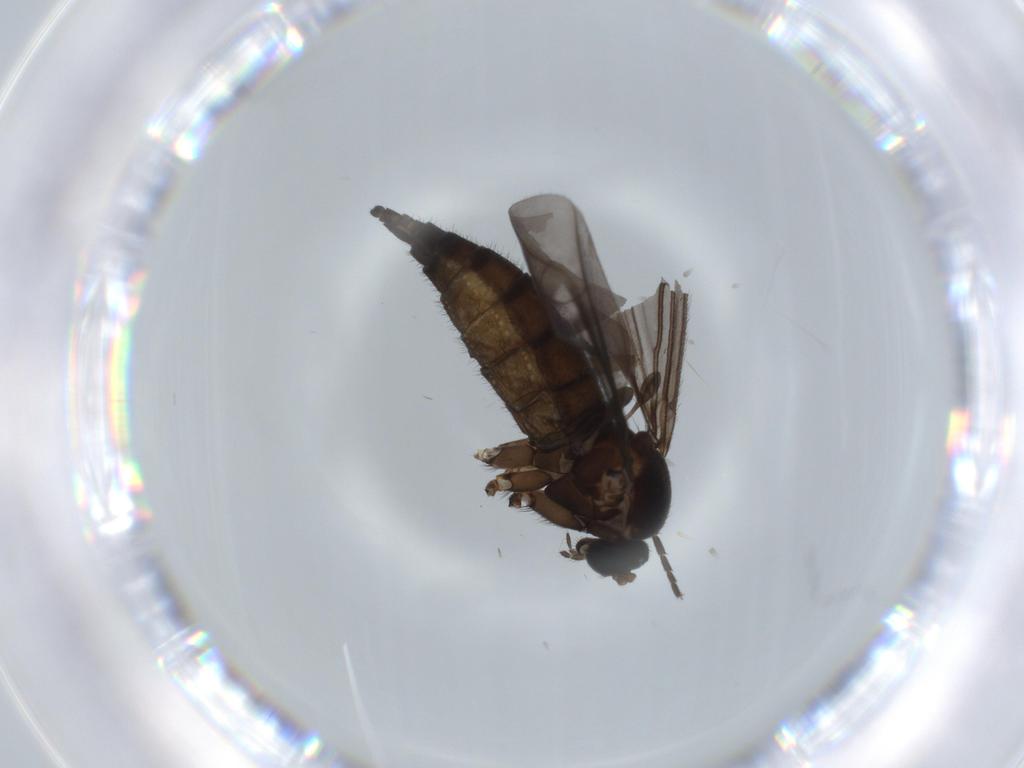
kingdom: Animalia
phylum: Arthropoda
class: Insecta
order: Diptera
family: Sciaridae
